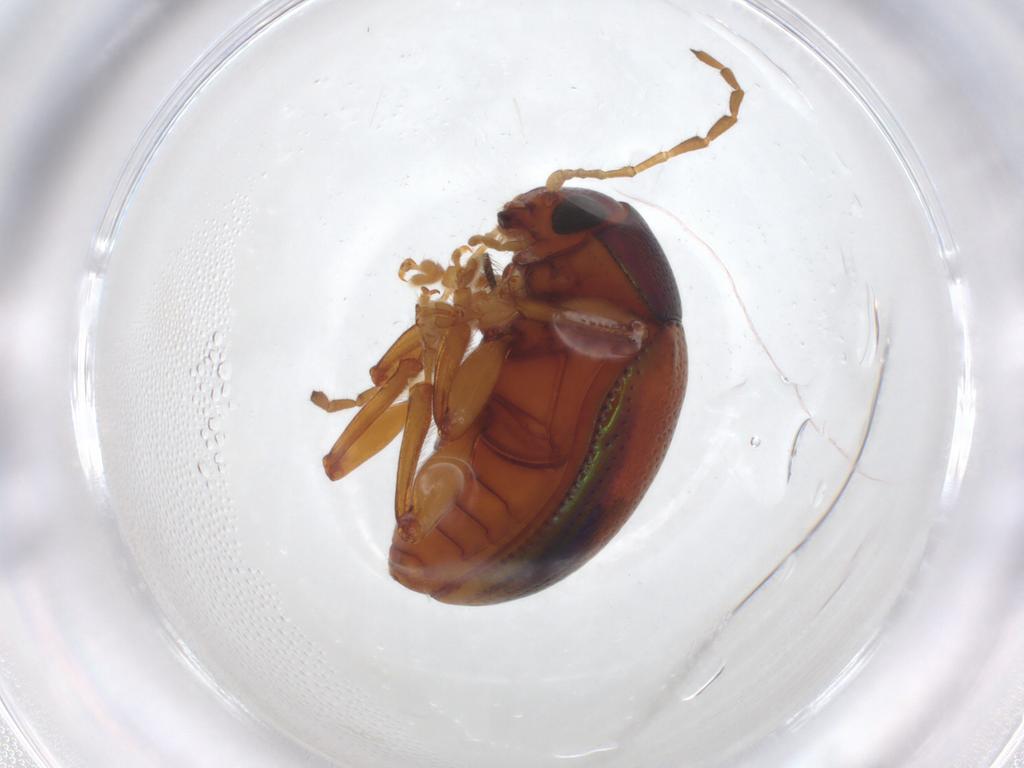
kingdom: Animalia
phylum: Arthropoda
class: Insecta
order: Coleoptera
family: Chrysomelidae
